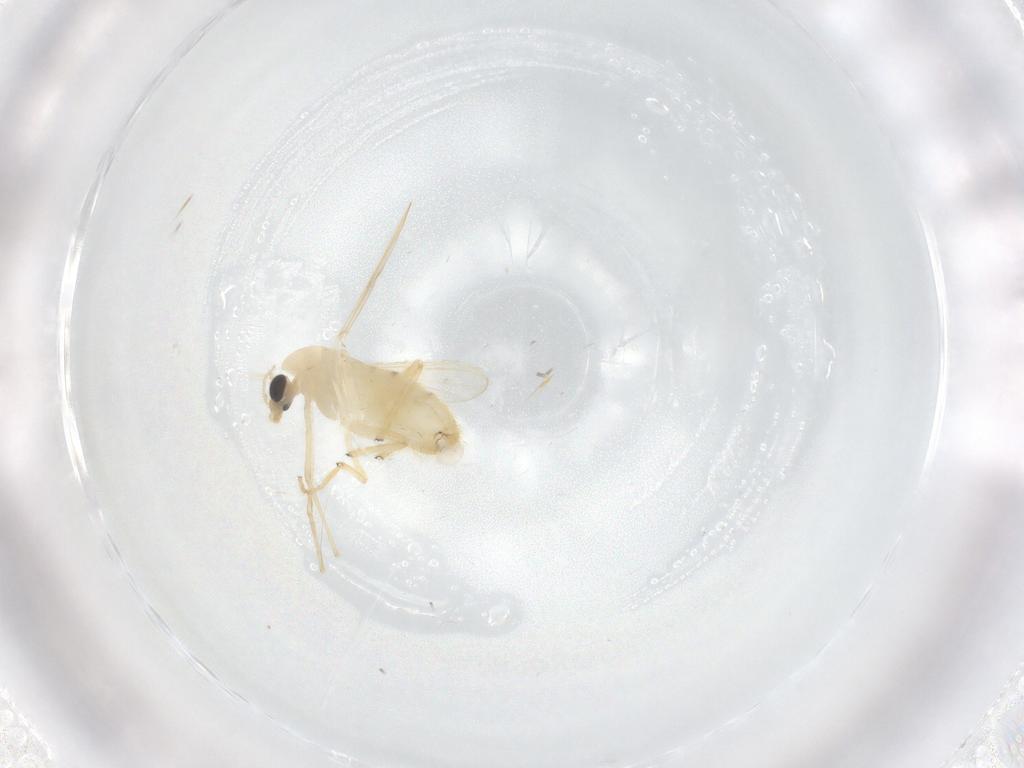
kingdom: Animalia
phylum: Arthropoda
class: Insecta
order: Diptera
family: Chironomidae
